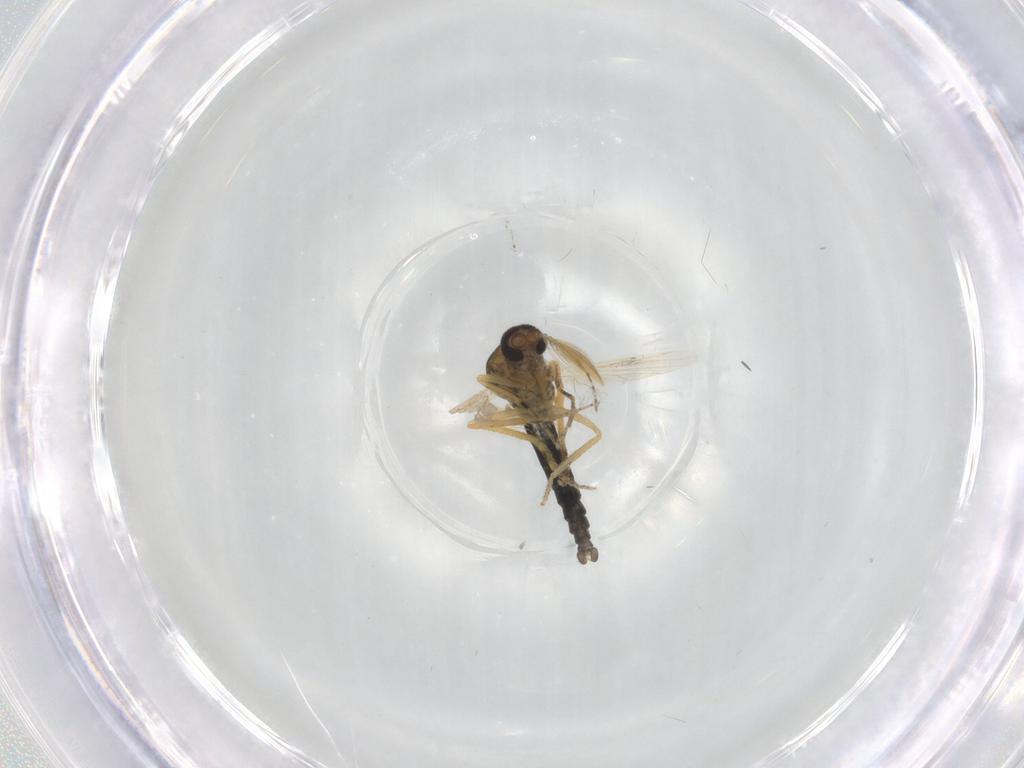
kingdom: Animalia
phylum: Arthropoda
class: Insecta
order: Diptera
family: Ceratopogonidae
